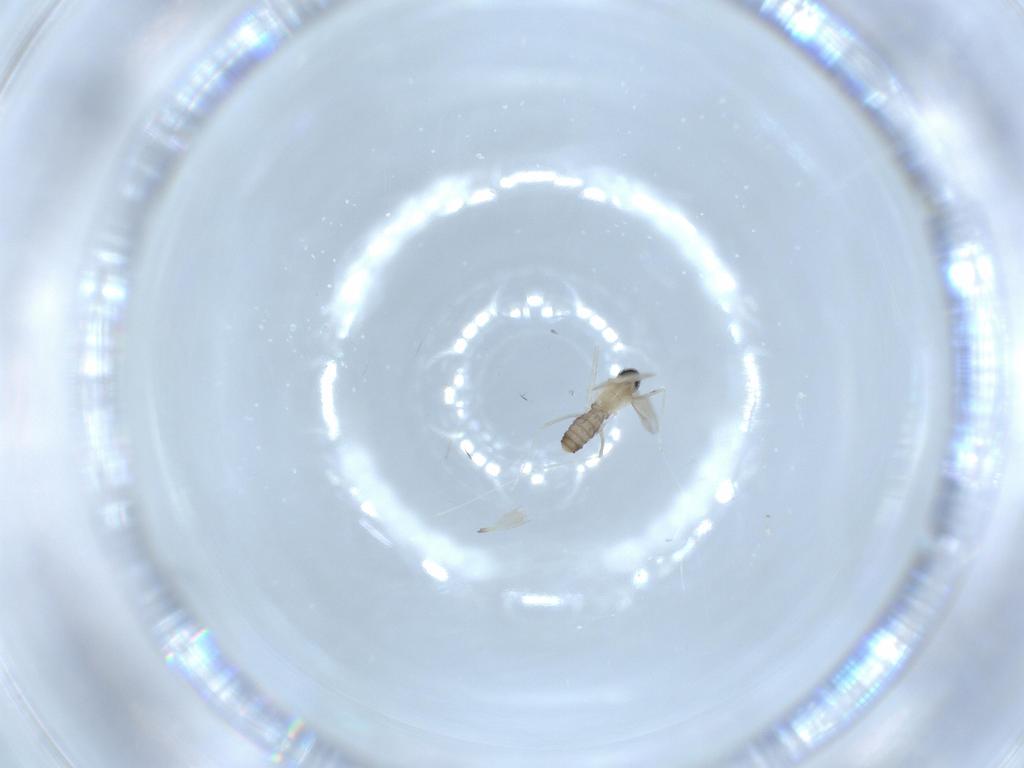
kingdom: Animalia
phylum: Arthropoda
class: Insecta
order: Diptera
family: Cecidomyiidae
